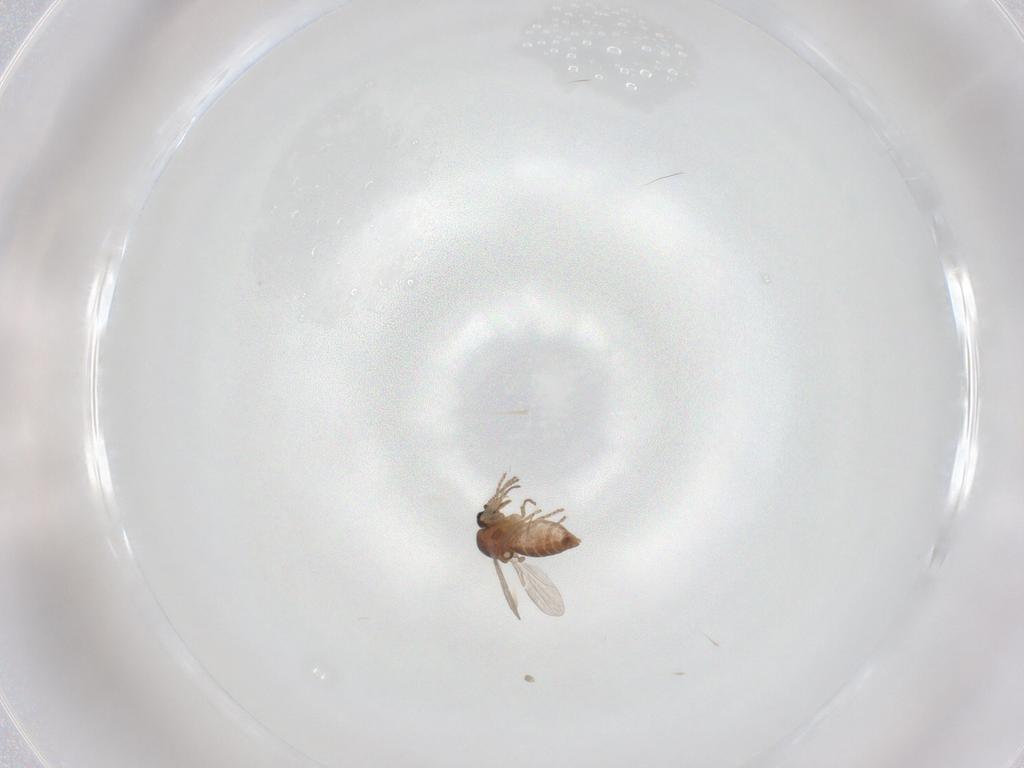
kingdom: Animalia
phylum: Arthropoda
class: Insecta
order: Diptera
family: Ceratopogonidae
